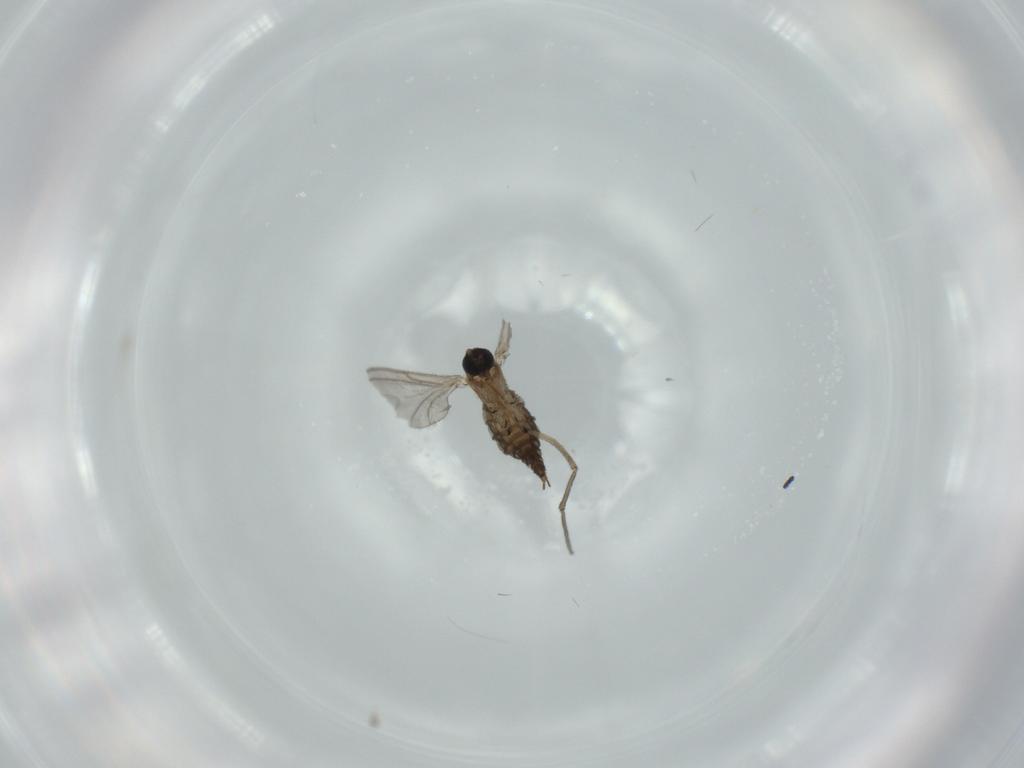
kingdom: Animalia
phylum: Arthropoda
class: Insecta
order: Diptera
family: Sciaridae
